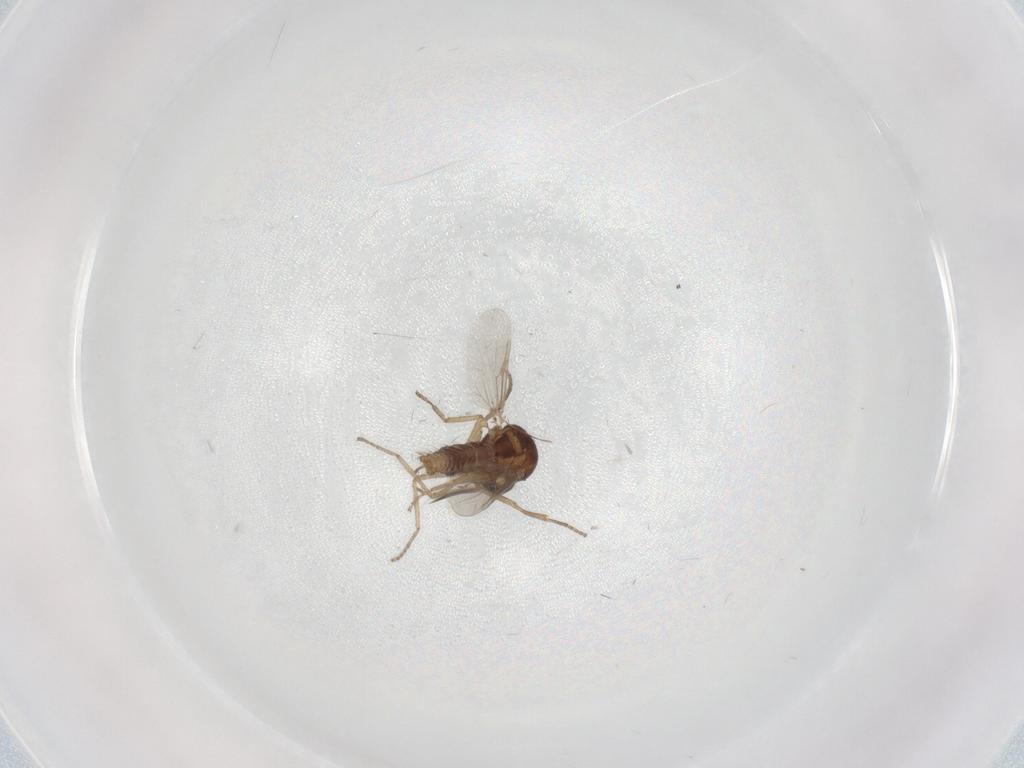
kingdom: Animalia
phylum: Arthropoda
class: Insecta
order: Diptera
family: Ceratopogonidae
